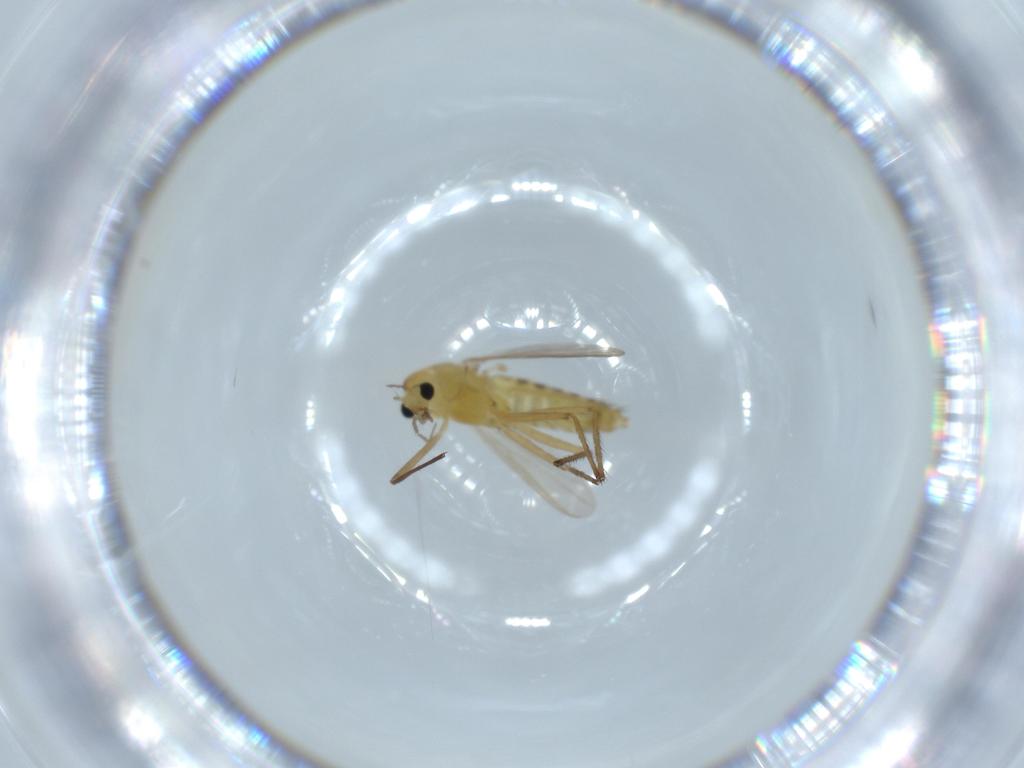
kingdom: Animalia
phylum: Arthropoda
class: Insecta
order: Diptera
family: Chironomidae
